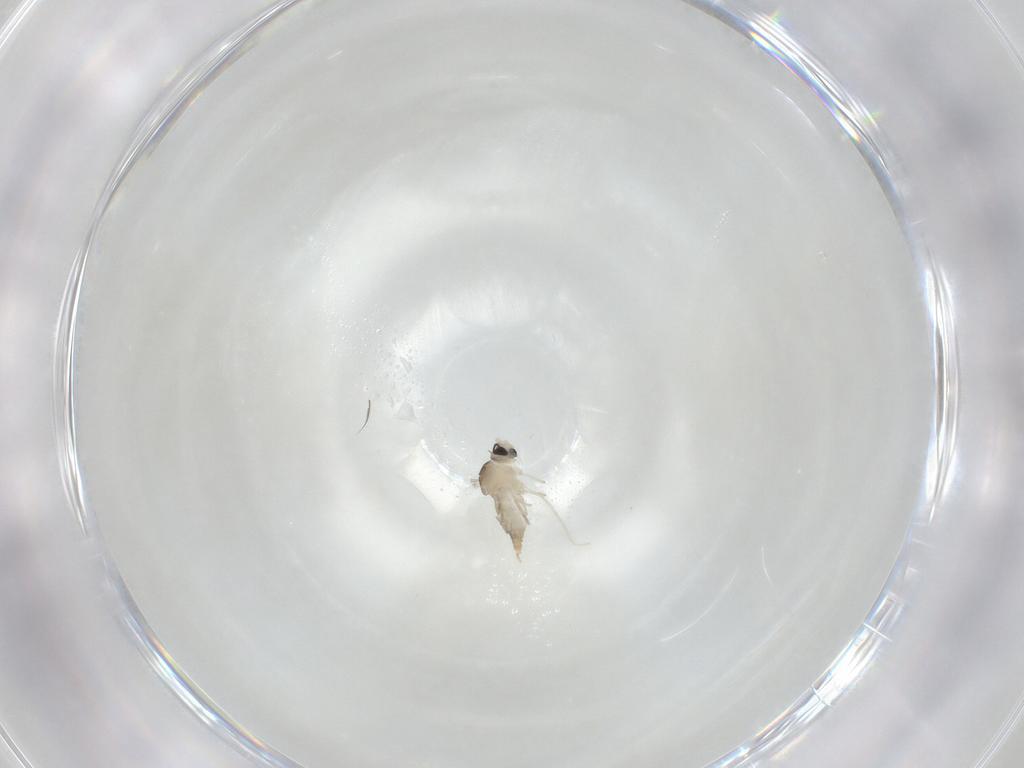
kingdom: Animalia
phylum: Arthropoda
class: Insecta
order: Diptera
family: Cecidomyiidae
